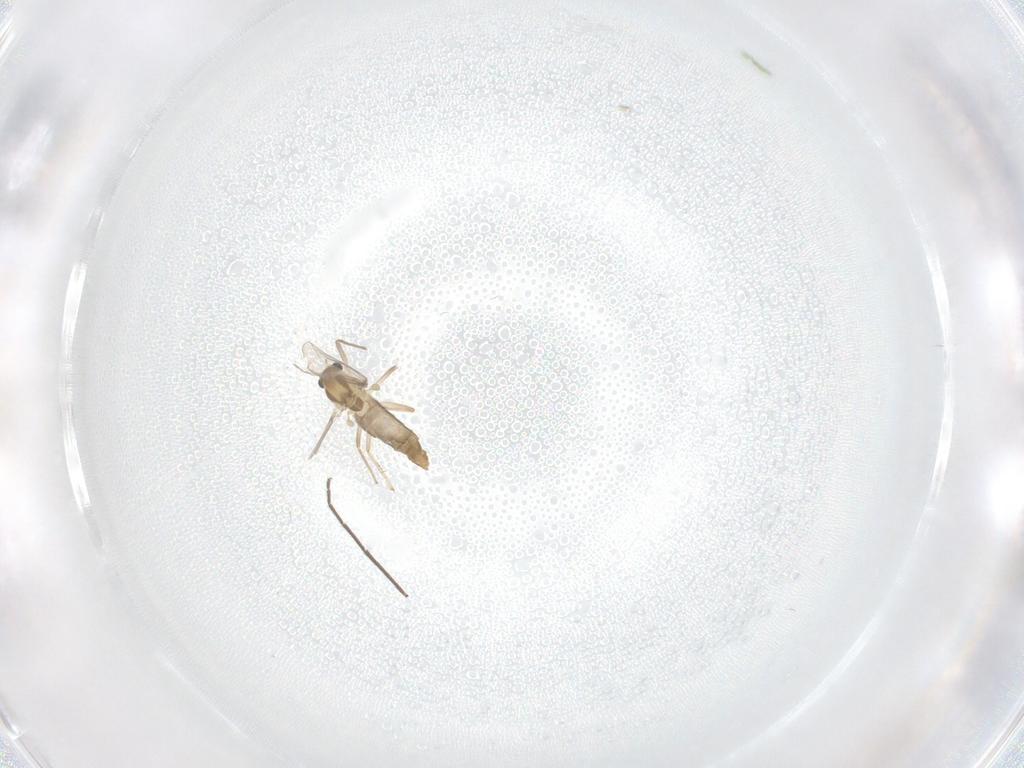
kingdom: Animalia
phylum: Arthropoda
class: Insecta
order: Diptera
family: Chironomidae
